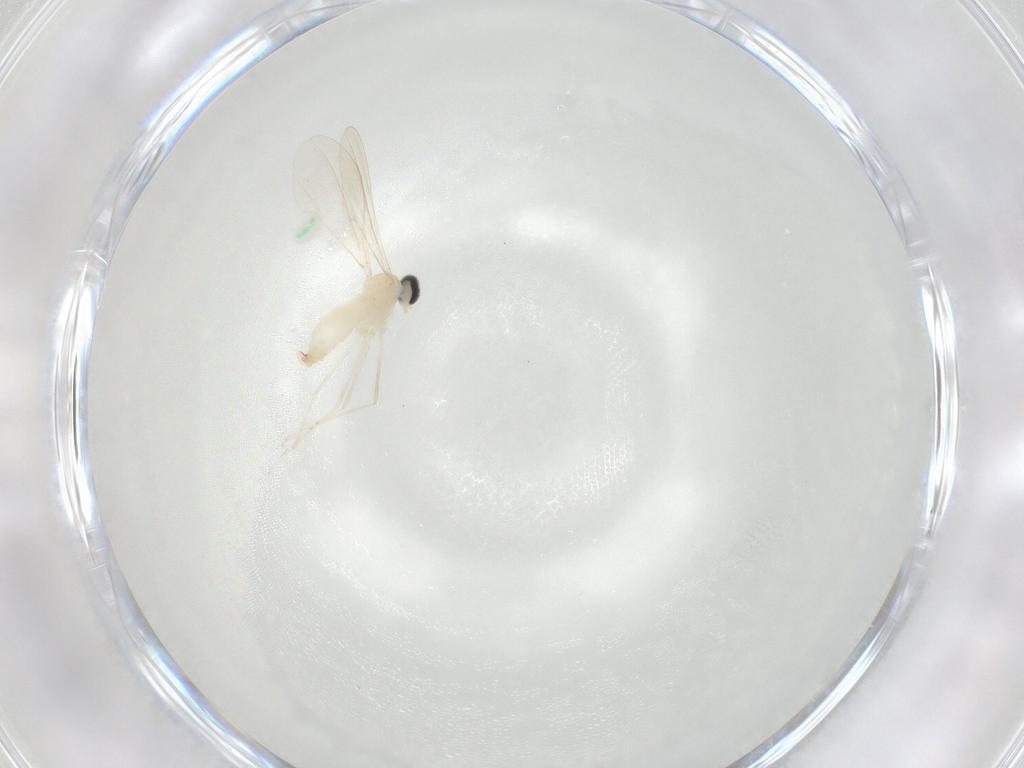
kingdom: Animalia
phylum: Arthropoda
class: Insecta
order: Diptera
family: Cecidomyiidae
